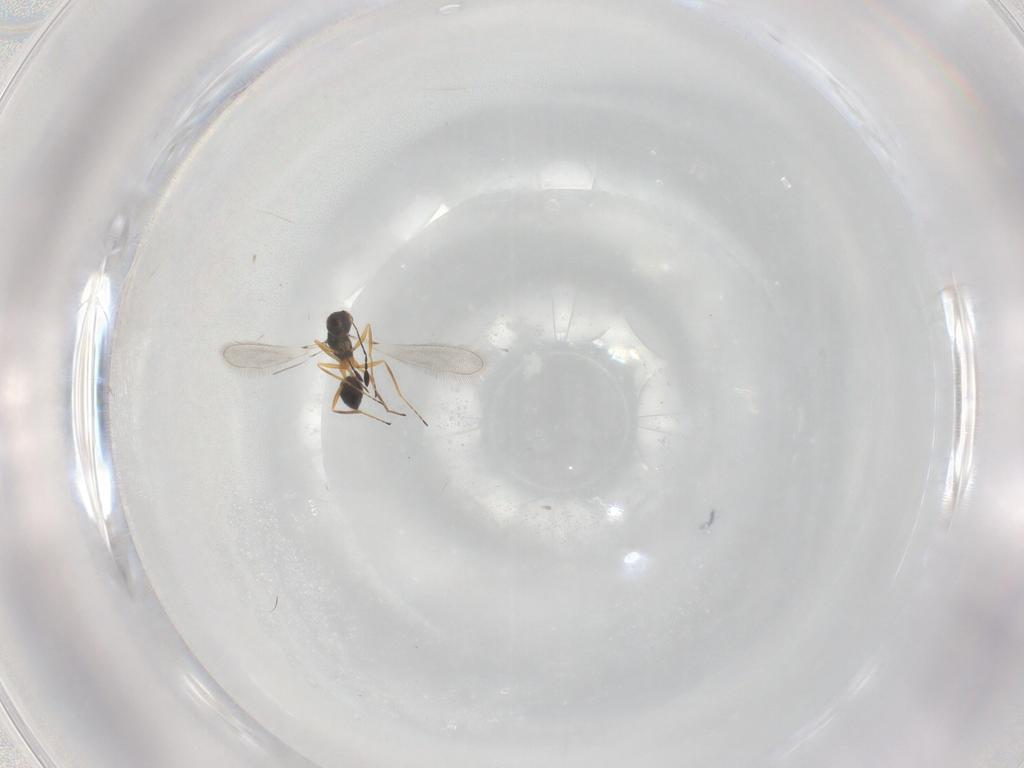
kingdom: Animalia
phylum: Arthropoda
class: Insecta
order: Hymenoptera
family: Mymaridae
